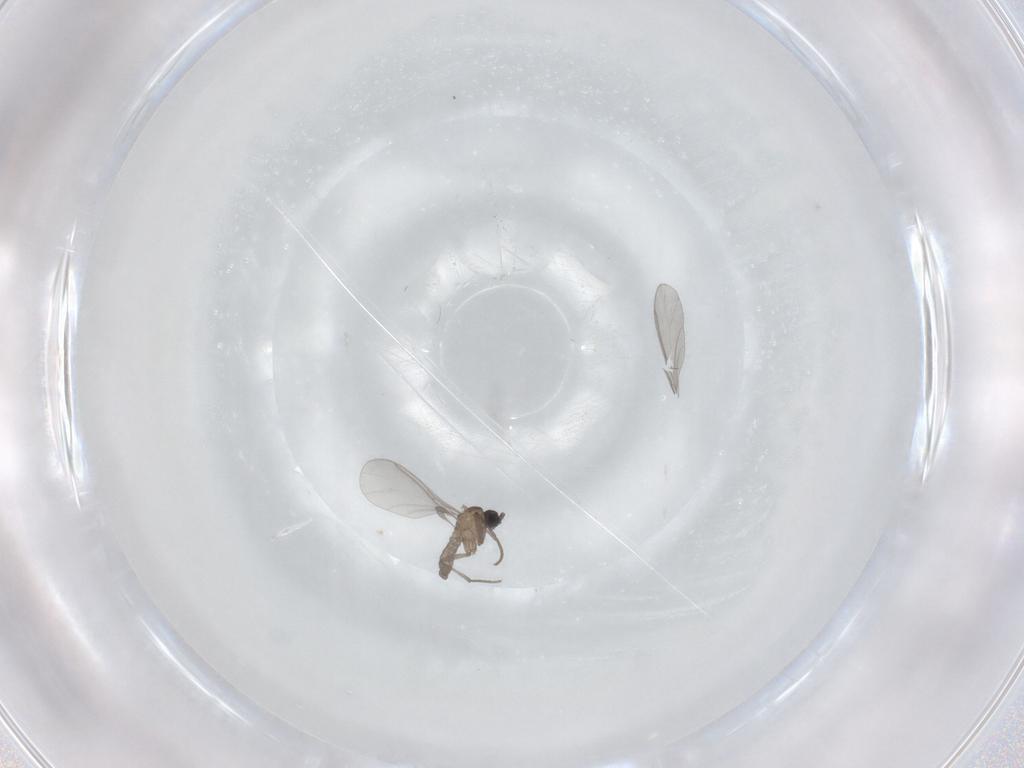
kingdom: Animalia
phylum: Arthropoda
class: Insecta
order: Diptera
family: Sciaridae
